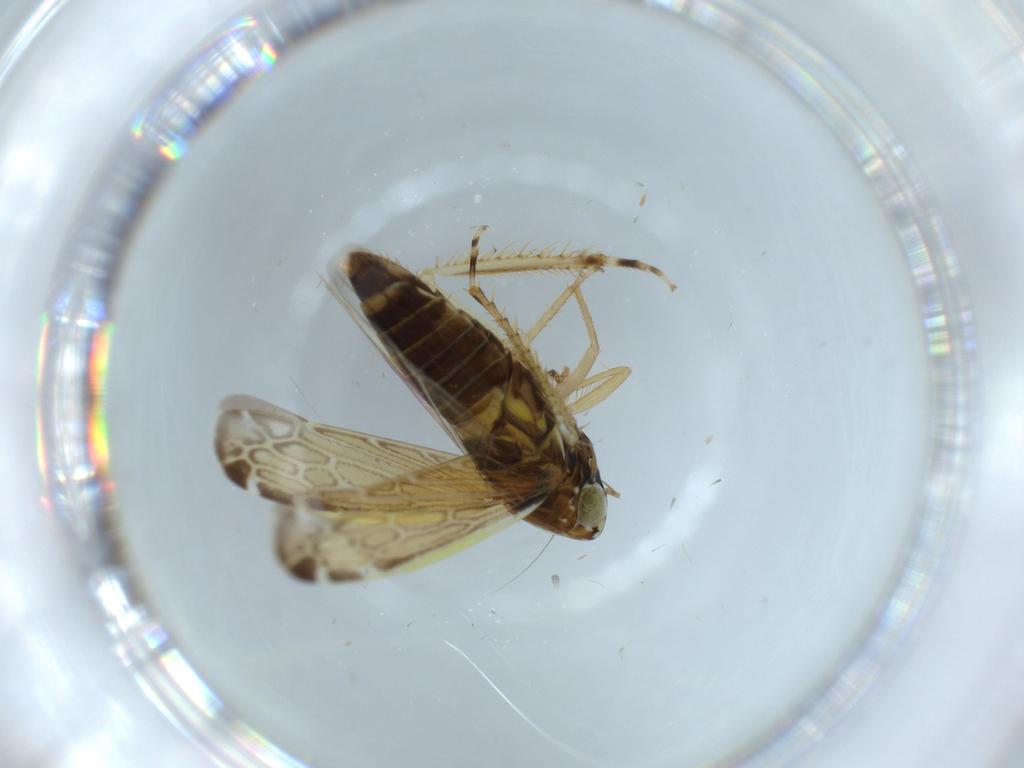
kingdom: Animalia
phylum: Arthropoda
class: Insecta
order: Hemiptera
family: Cicadellidae
